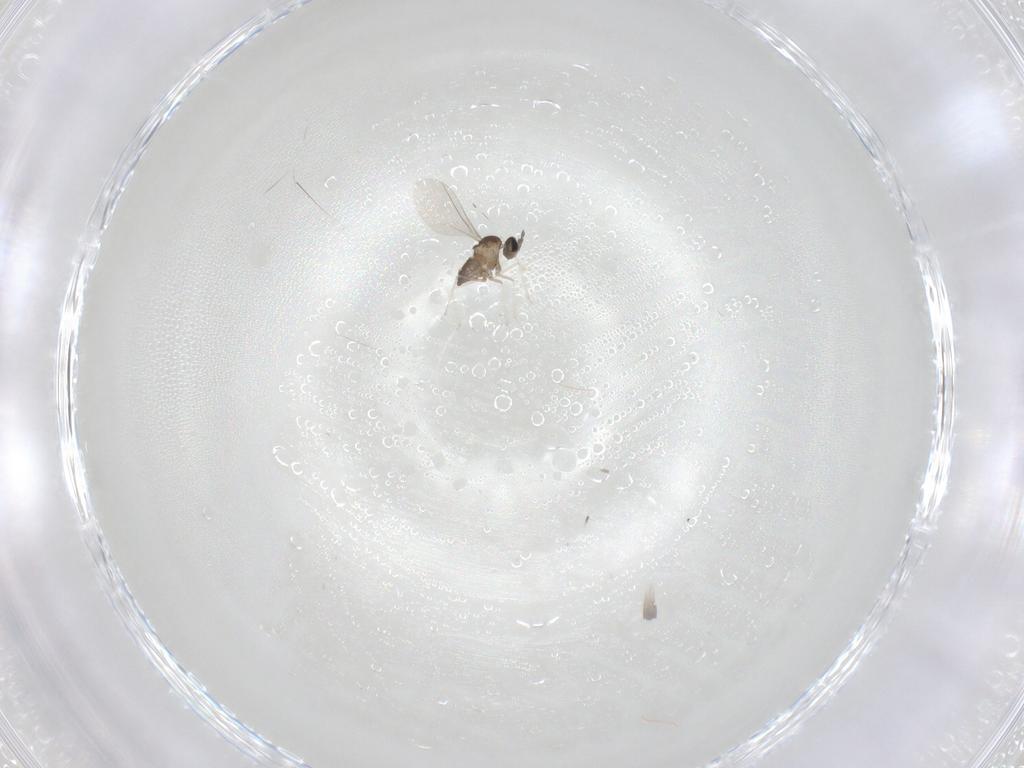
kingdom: Animalia
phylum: Arthropoda
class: Insecta
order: Diptera
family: Cecidomyiidae
